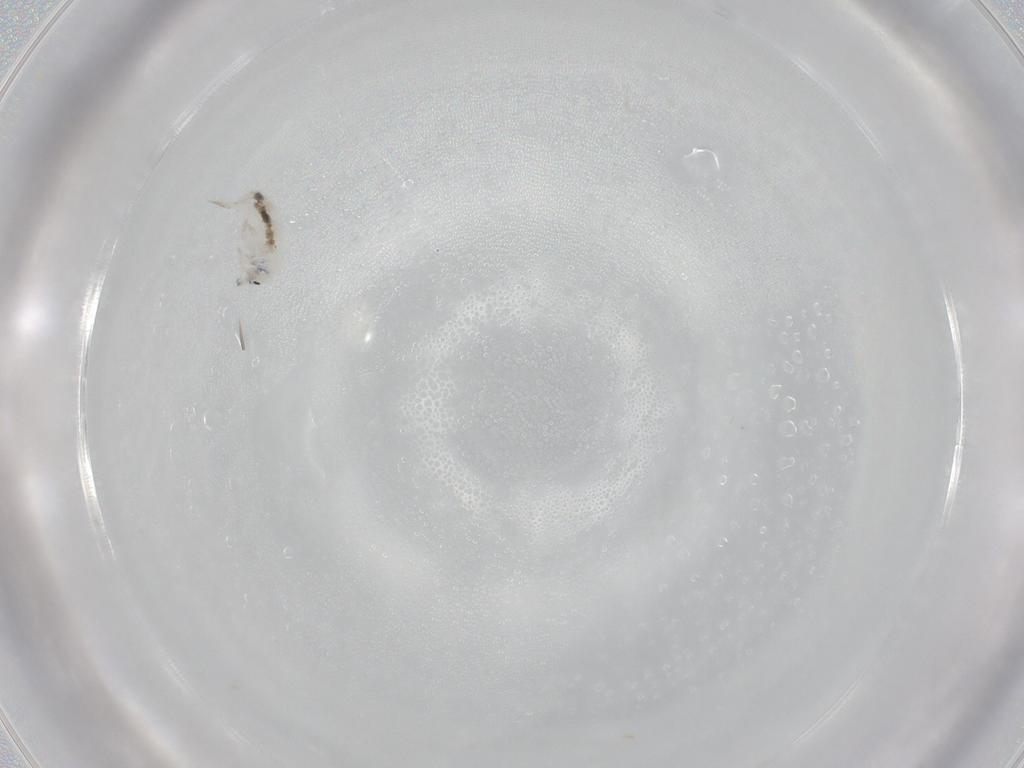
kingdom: Animalia
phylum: Arthropoda
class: Collembola
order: Entomobryomorpha
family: Entomobryidae
